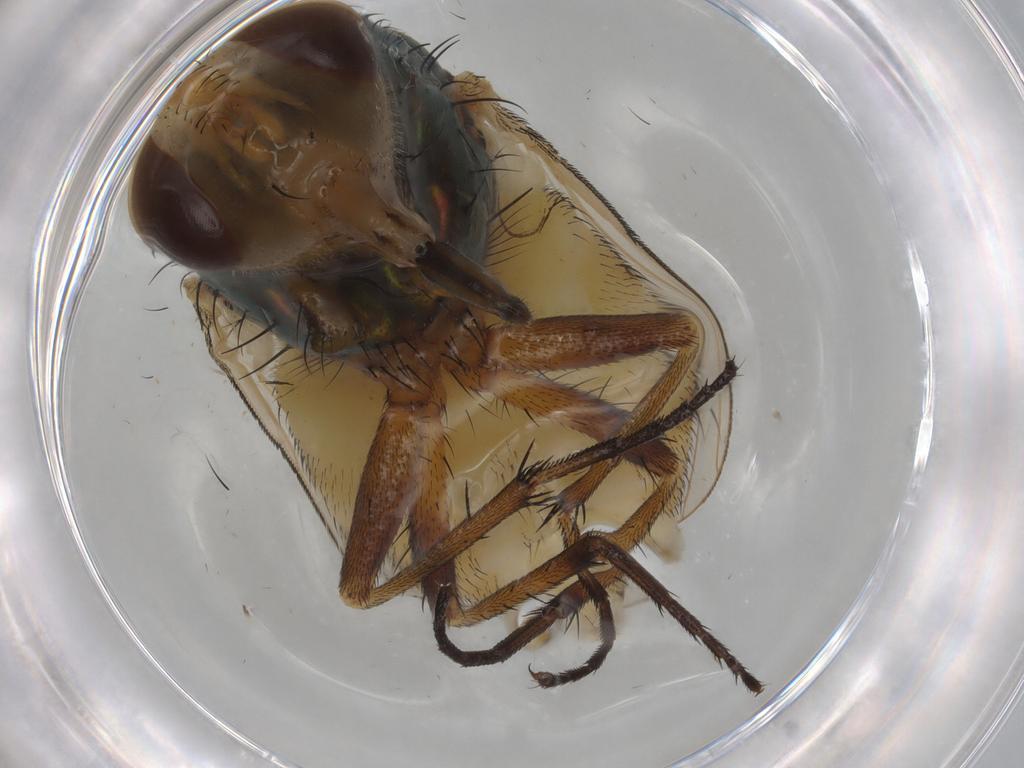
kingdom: Animalia
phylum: Arthropoda
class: Insecta
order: Diptera
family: Calliphoridae
